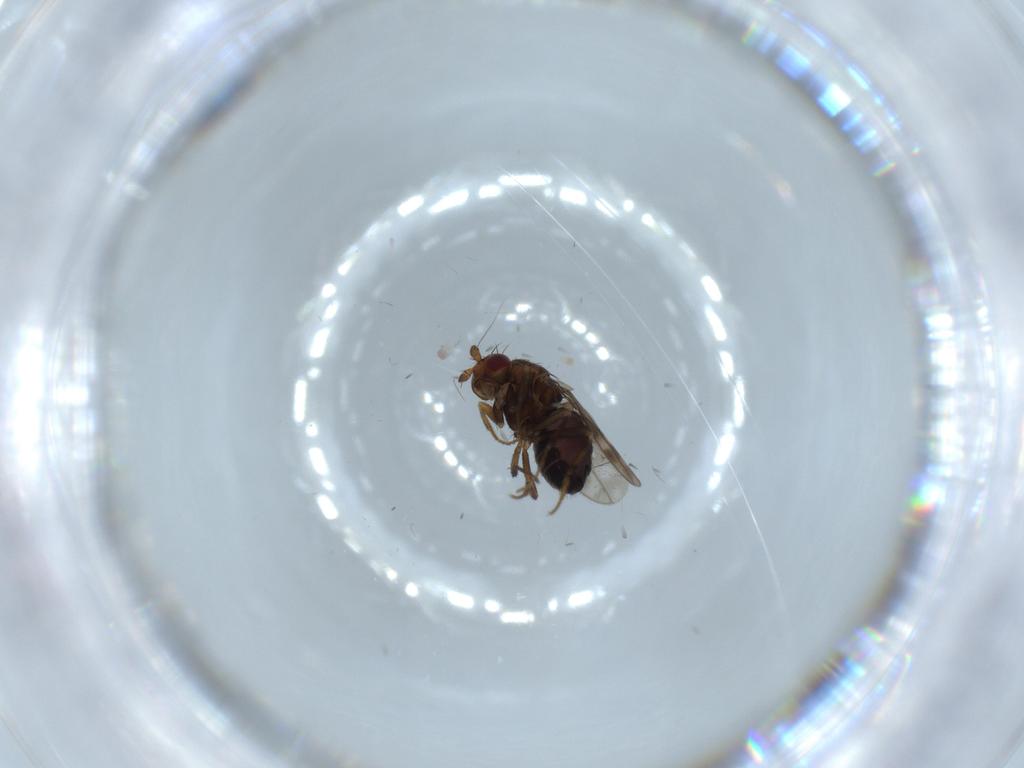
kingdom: Animalia
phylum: Arthropoda
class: Insecta
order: Diptera
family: Sphaeroceridae
